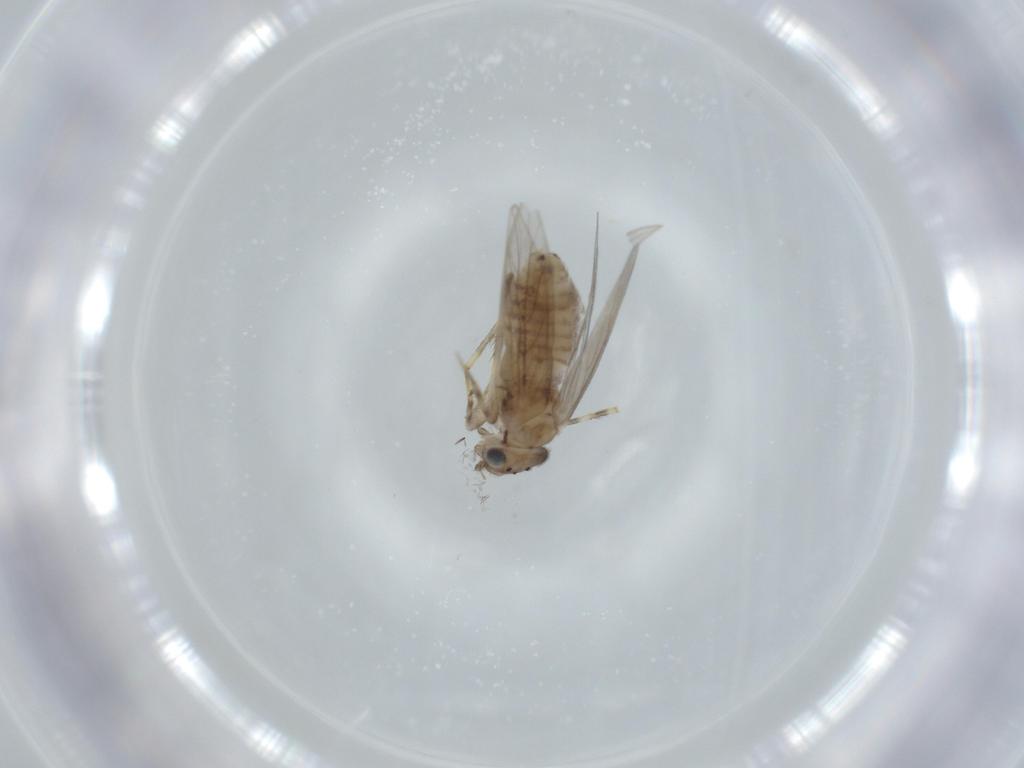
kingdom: Animalia
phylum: Arthropoda
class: Insecta
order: Psocodea
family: Lepidopsocidae
